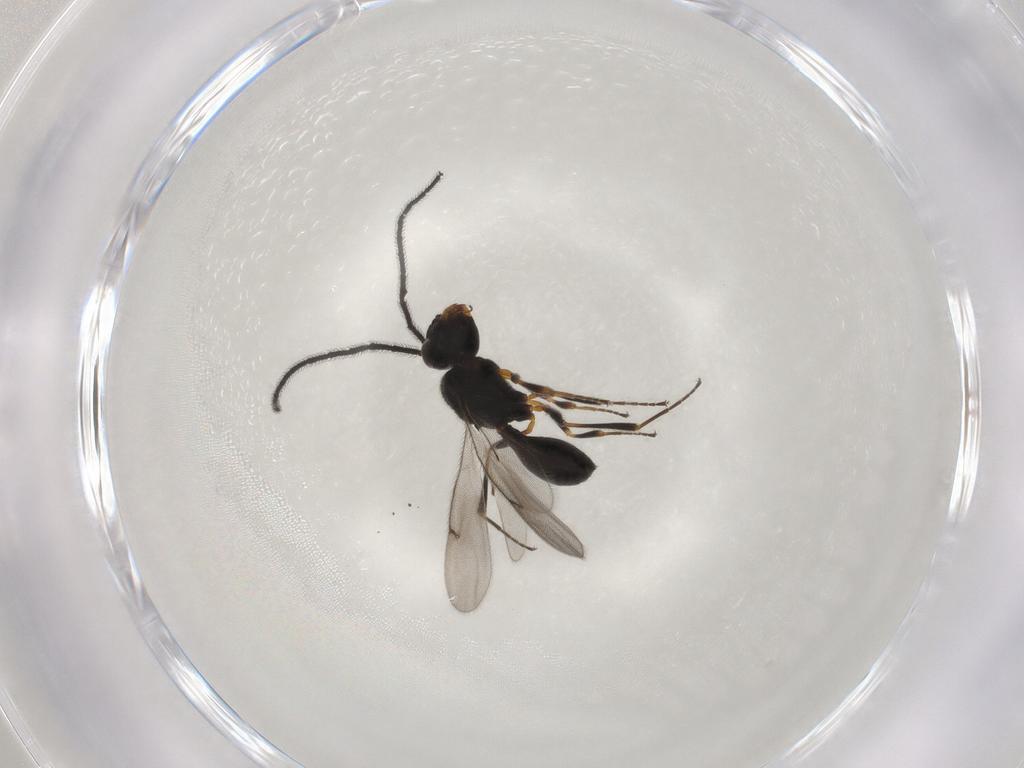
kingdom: Animalia
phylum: Arthropoda
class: Insecta
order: Hymenoptera
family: Scelionidae
